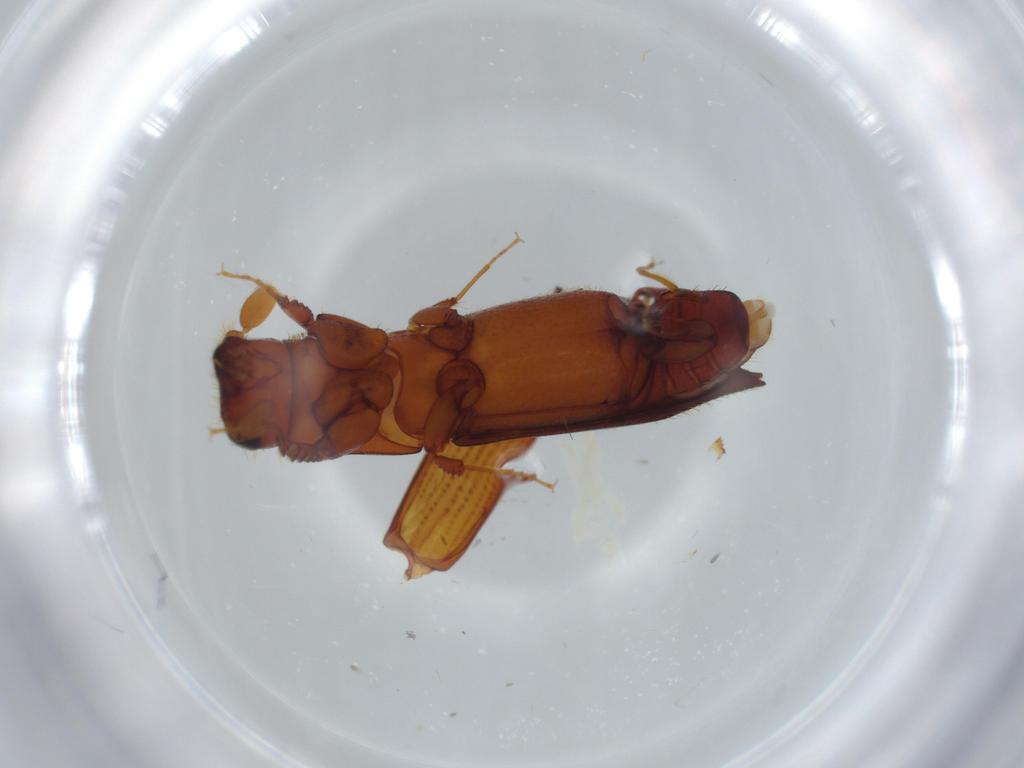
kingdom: Animalia
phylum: Arthropoda
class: Insecta
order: Coleoptera
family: Curculionidae
